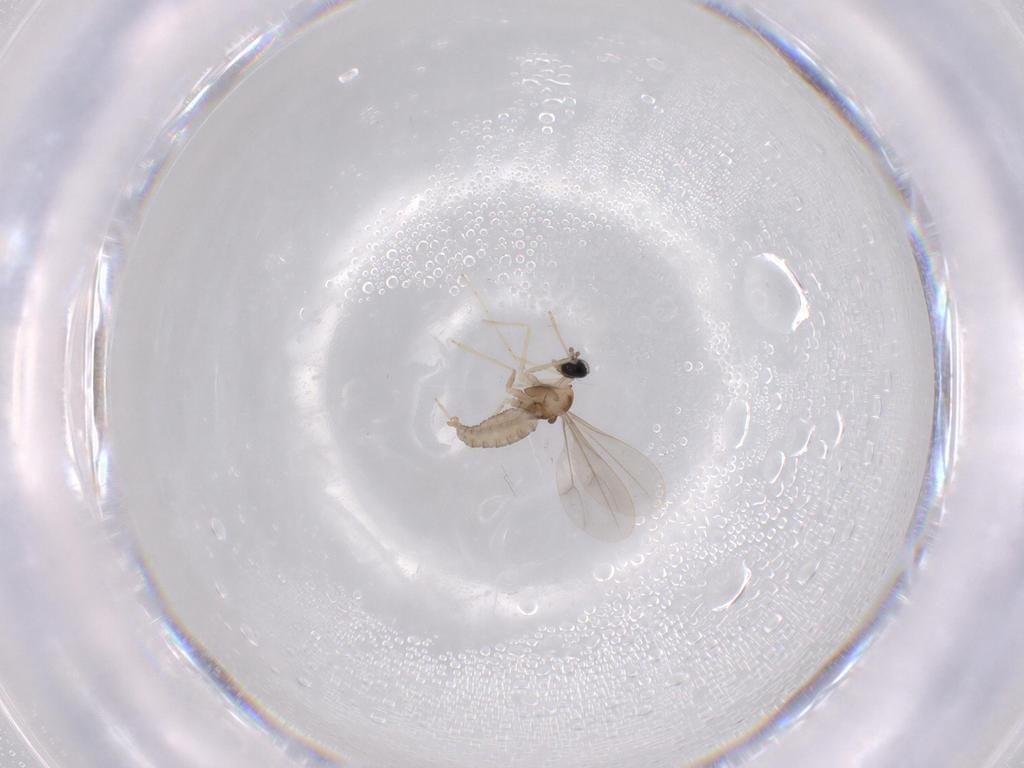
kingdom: Animalia
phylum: Arthropoda
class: Insecta
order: Diptera
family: Cecidomyiidae
